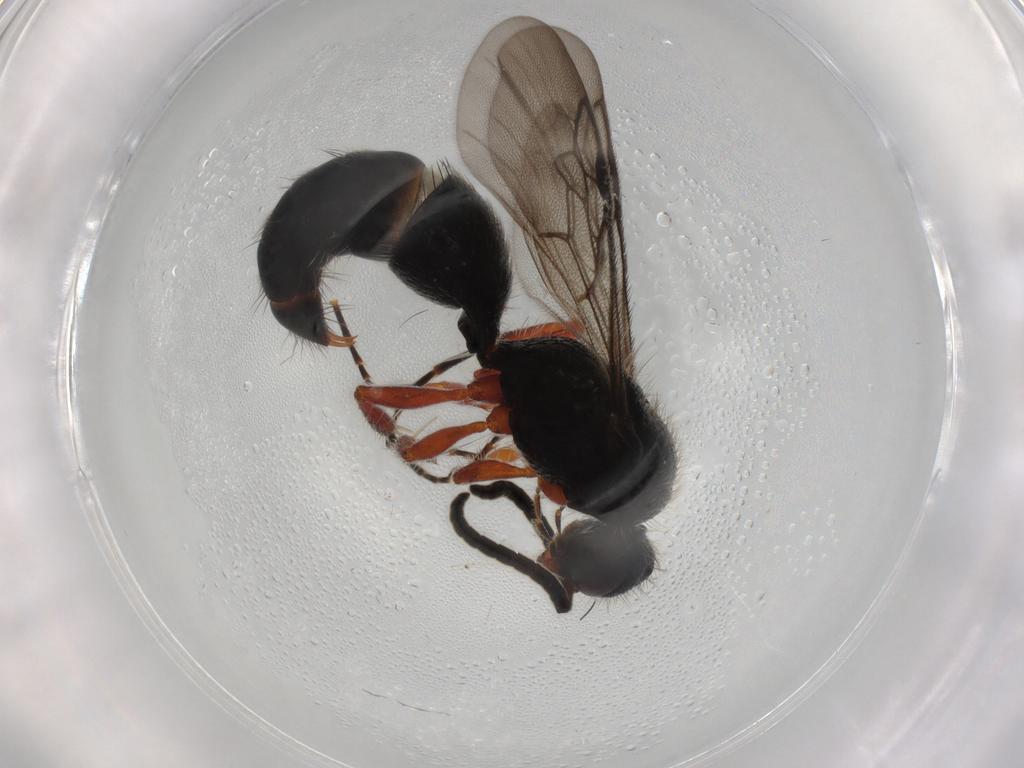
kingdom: Animalia
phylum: Arthropoda
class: Insecta
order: Hymenoptera
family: Mutillidae
